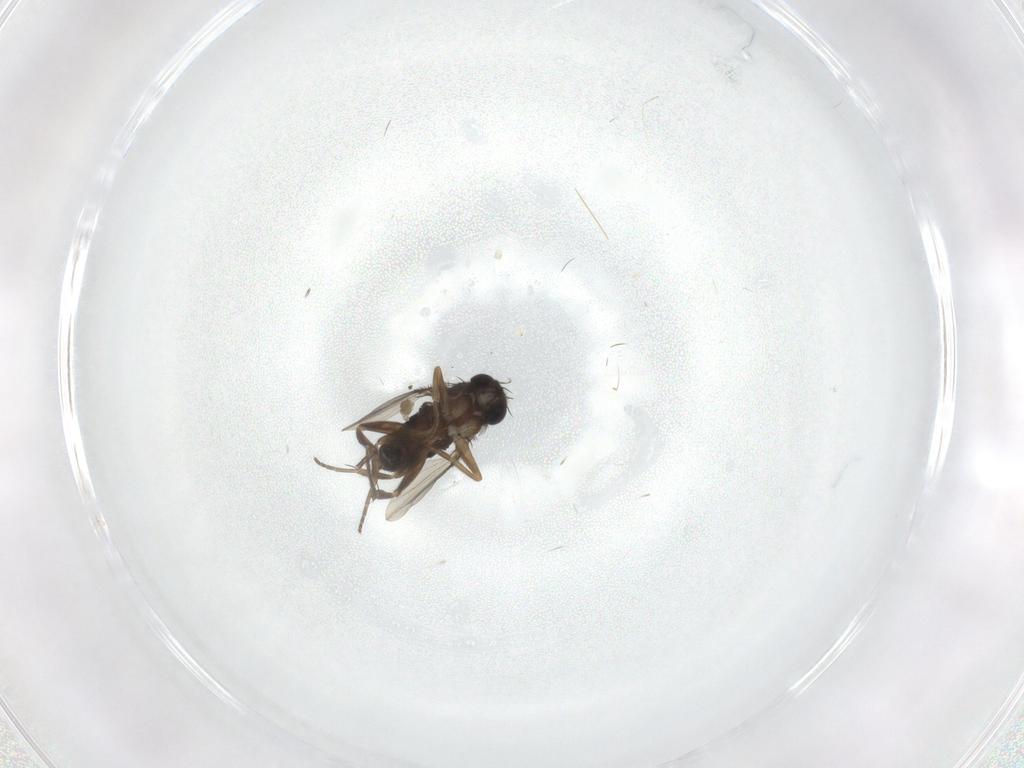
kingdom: Animalia
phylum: Arthropoda
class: Insecta
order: Diptera
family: Phoridae
